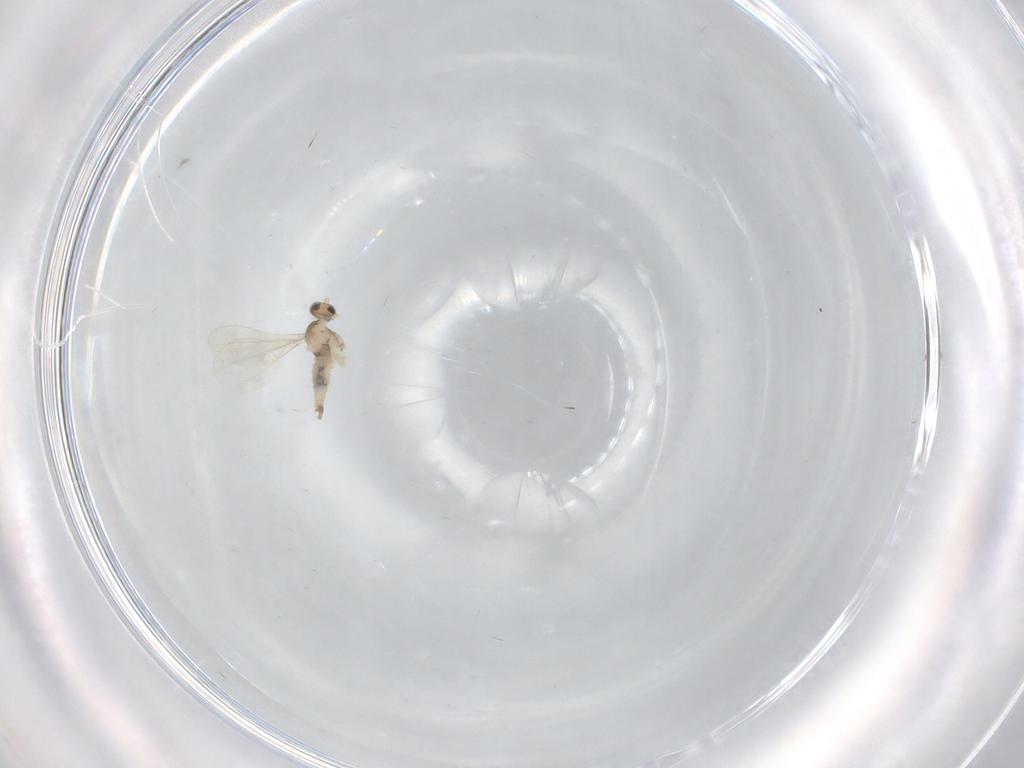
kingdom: Animalia
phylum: Arthropoda
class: Insecta
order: Diptera
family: Cecidomyiidae
